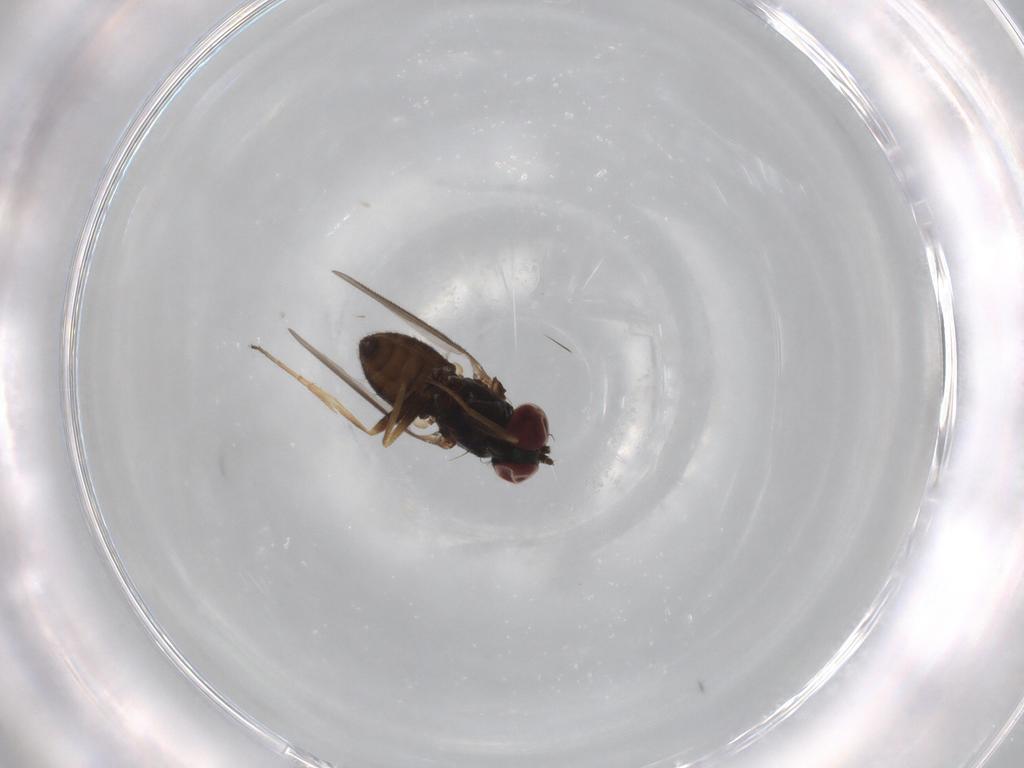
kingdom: Animalia
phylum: Arthropoda
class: Insecta
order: Diptera
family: Dolichopodidae
